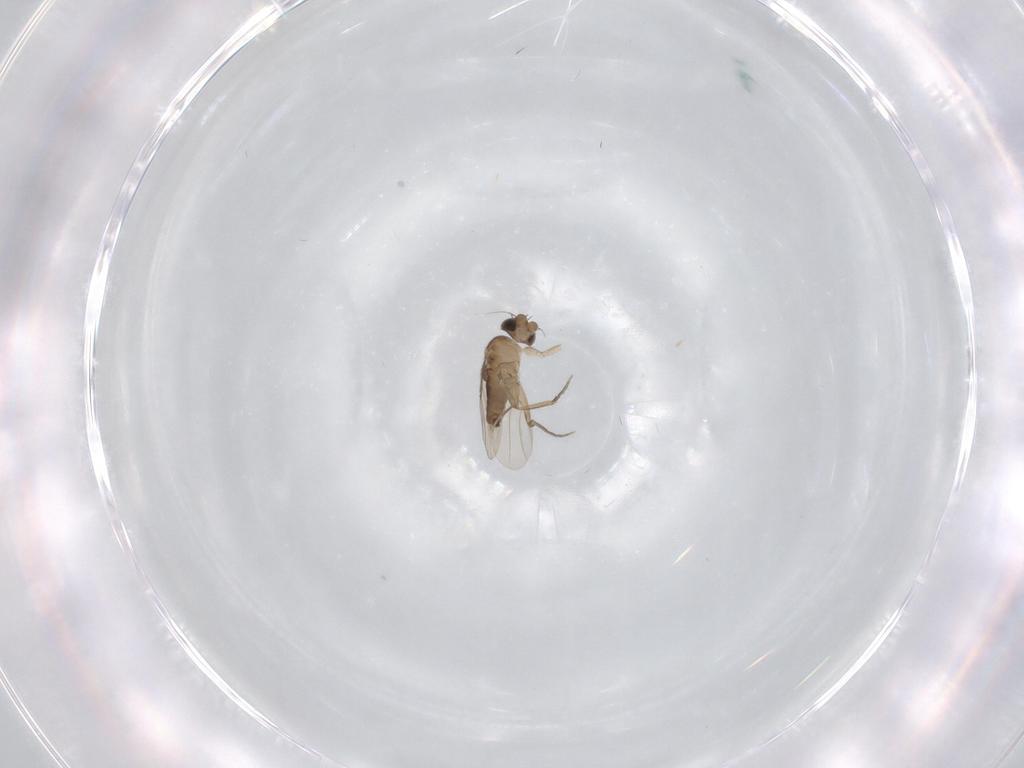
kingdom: Animalia
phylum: Arthropoda
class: Insecta
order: Diptera
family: Phoridae
